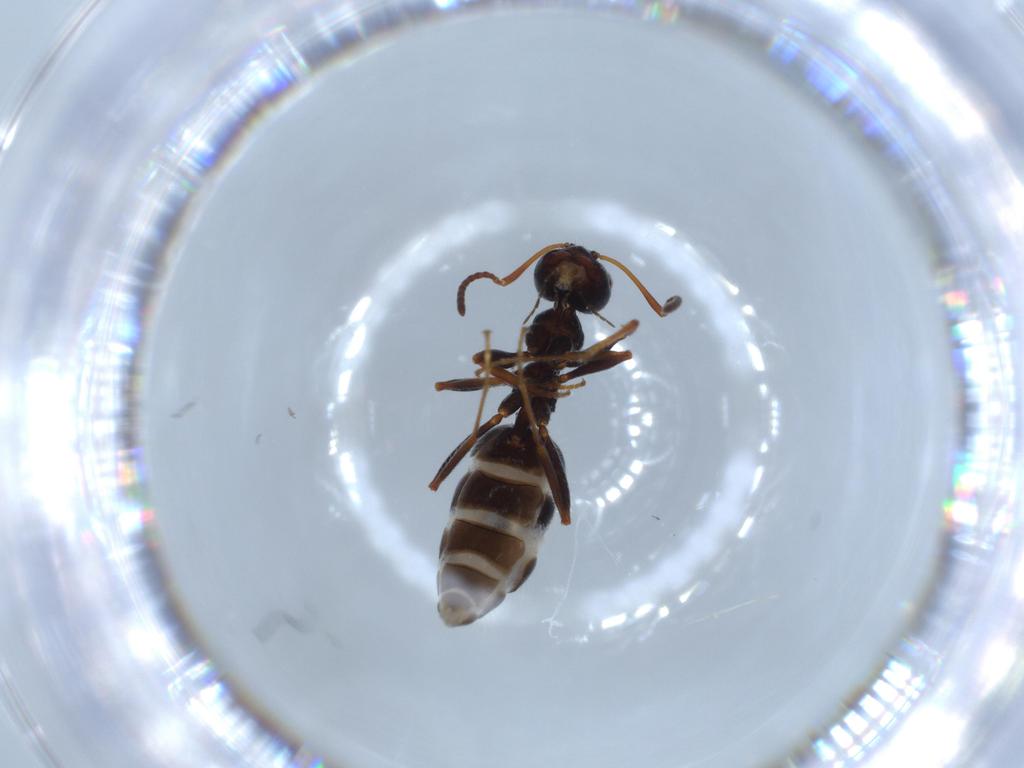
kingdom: Animalia
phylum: Arthropoda
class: Insecta
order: Hymenoptera
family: Formicidae
